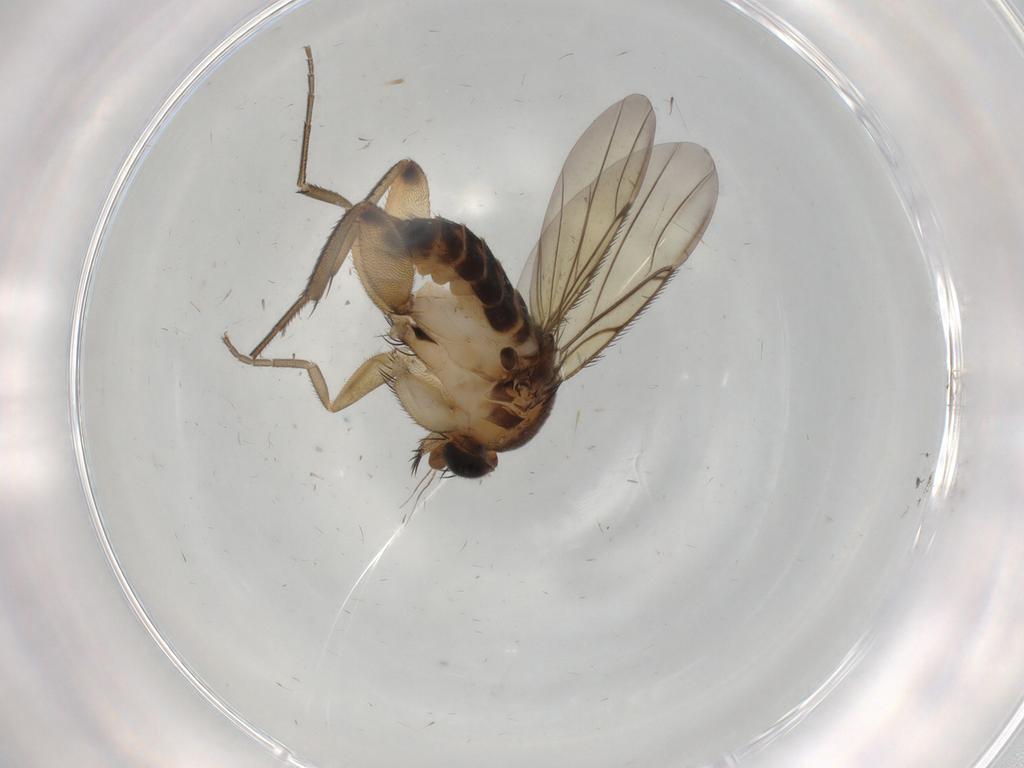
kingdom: Animalia
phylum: Arthropoda
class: Insecta
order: Diptera
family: Phoridae
